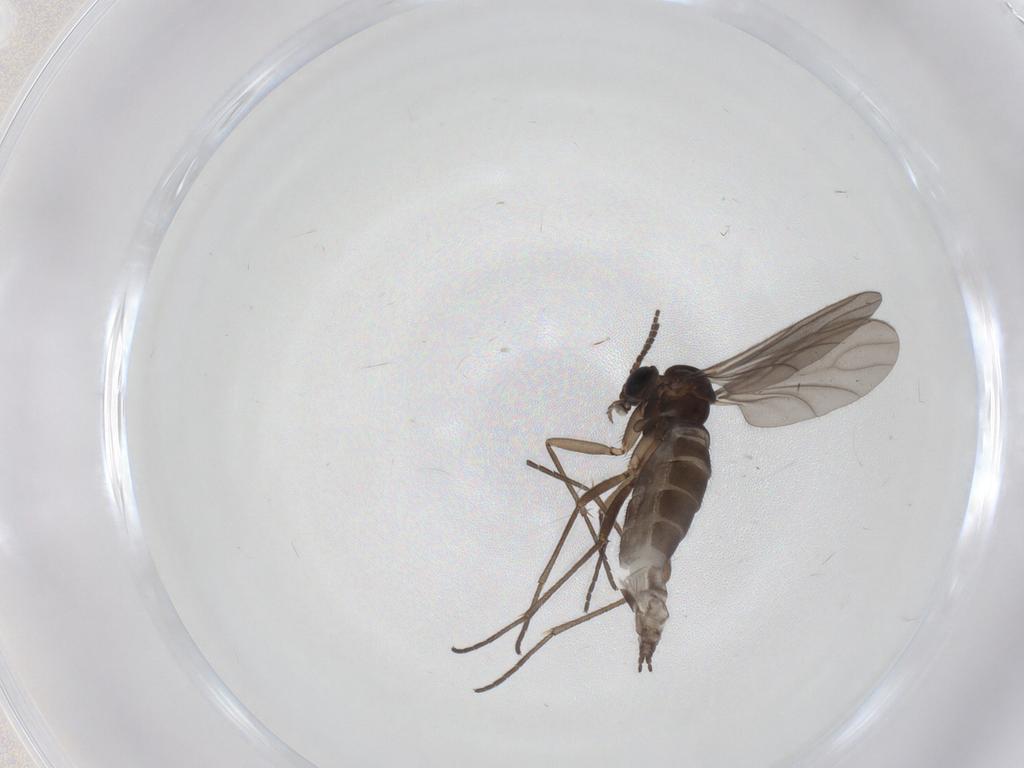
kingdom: Animalia
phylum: Arthropoda
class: Insecta
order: Diptera
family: Sciaridae
